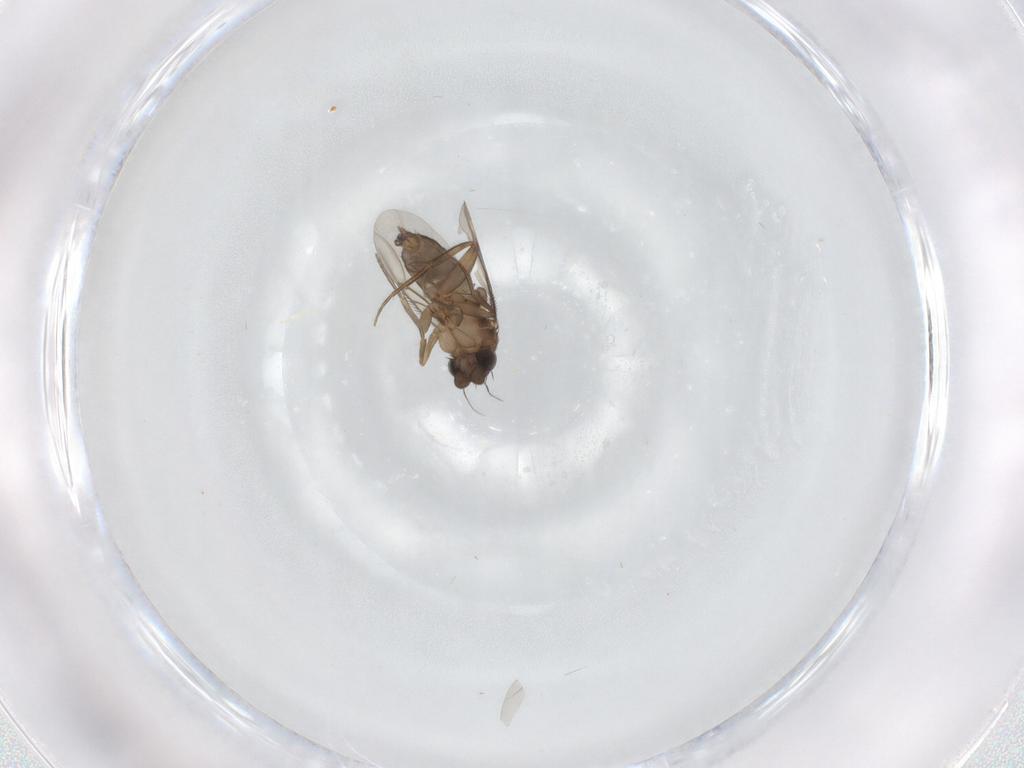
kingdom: Animalia
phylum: Arthropoda
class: Insecta
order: Diptera
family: Phoridae
